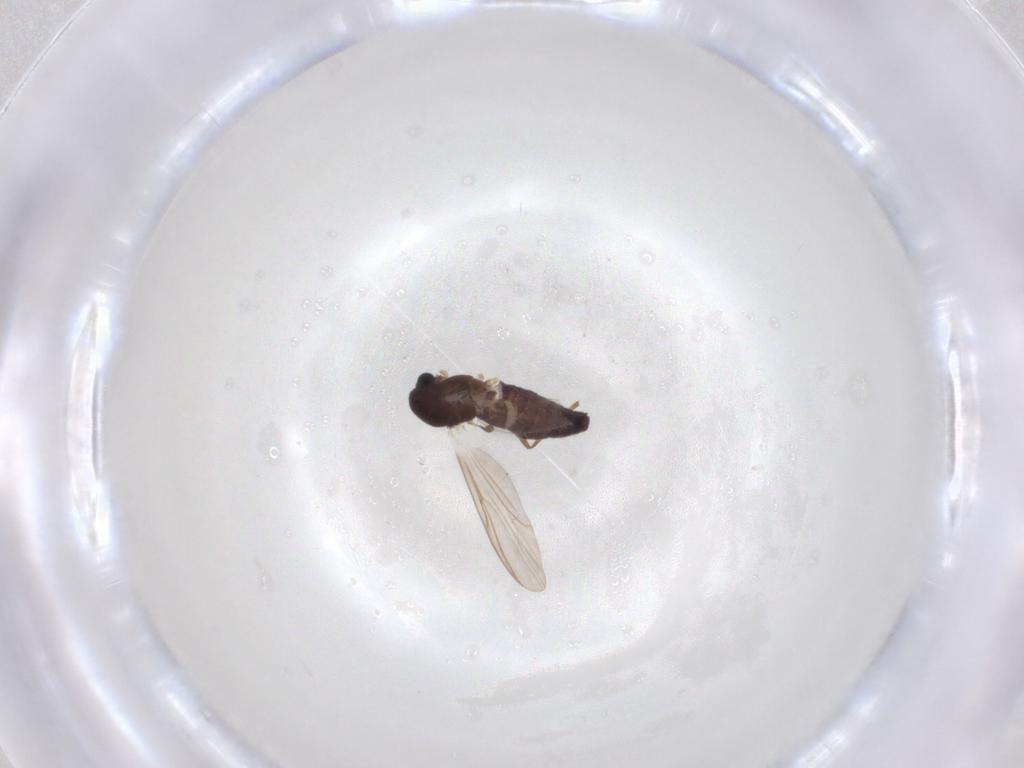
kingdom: Animalia
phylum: Arthropoda
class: Insecta
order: Diptera
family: Chironomidae
